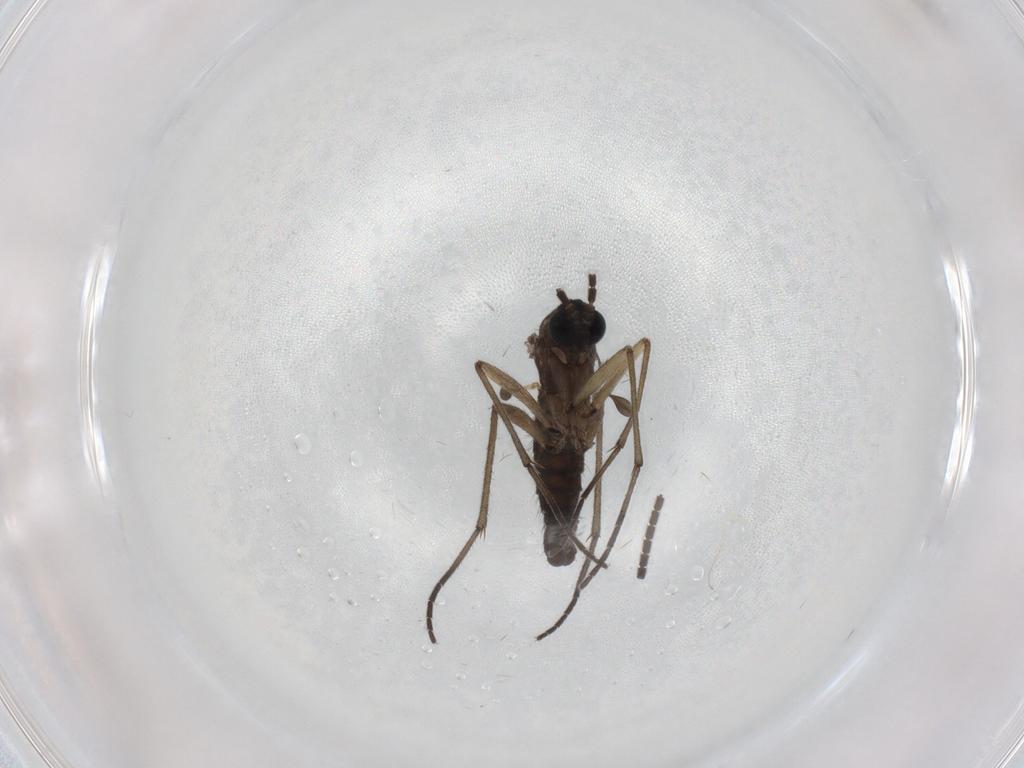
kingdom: Animalia
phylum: Arthropoda
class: Insecta
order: Diptera
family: Sciaridae
